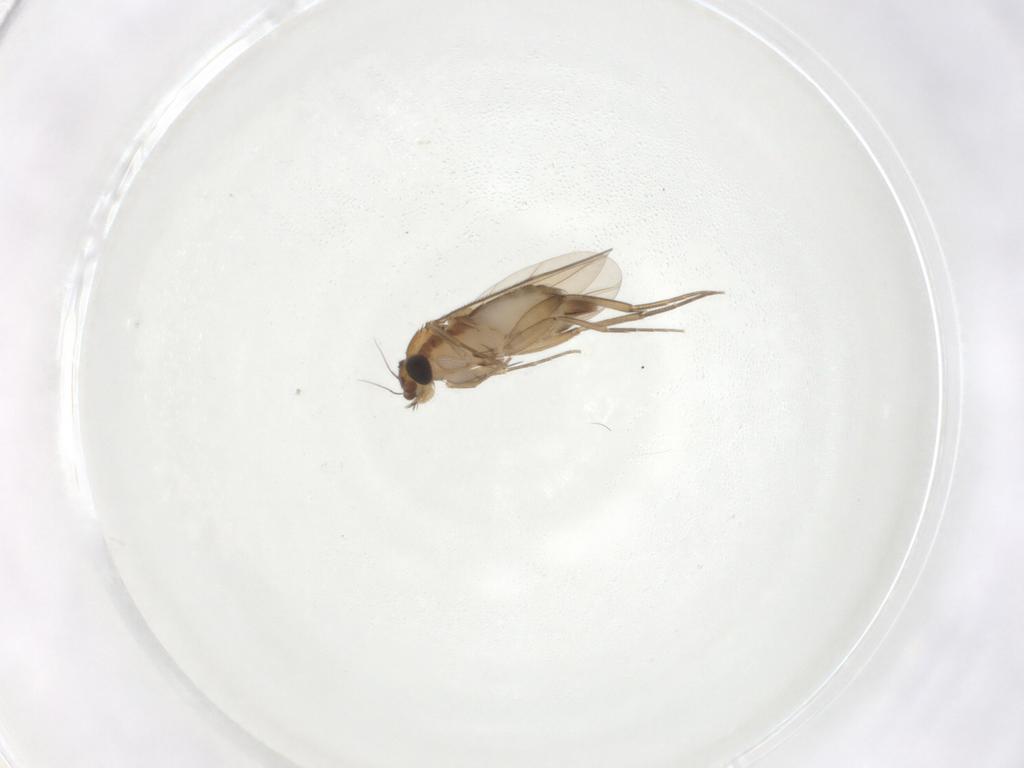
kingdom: Animalia
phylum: Arthropoda
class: Insecta
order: Diptera
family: Phoridae
